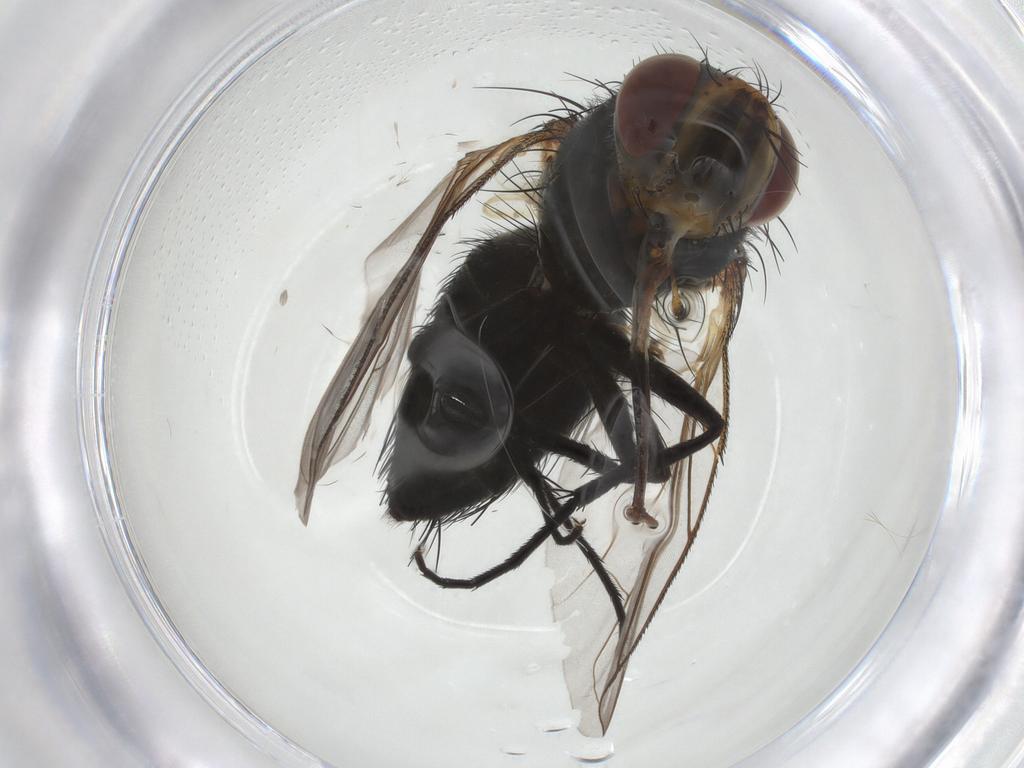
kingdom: Animalia
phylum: Arthropoda
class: Insecta
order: Diptera
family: Tachinidae
